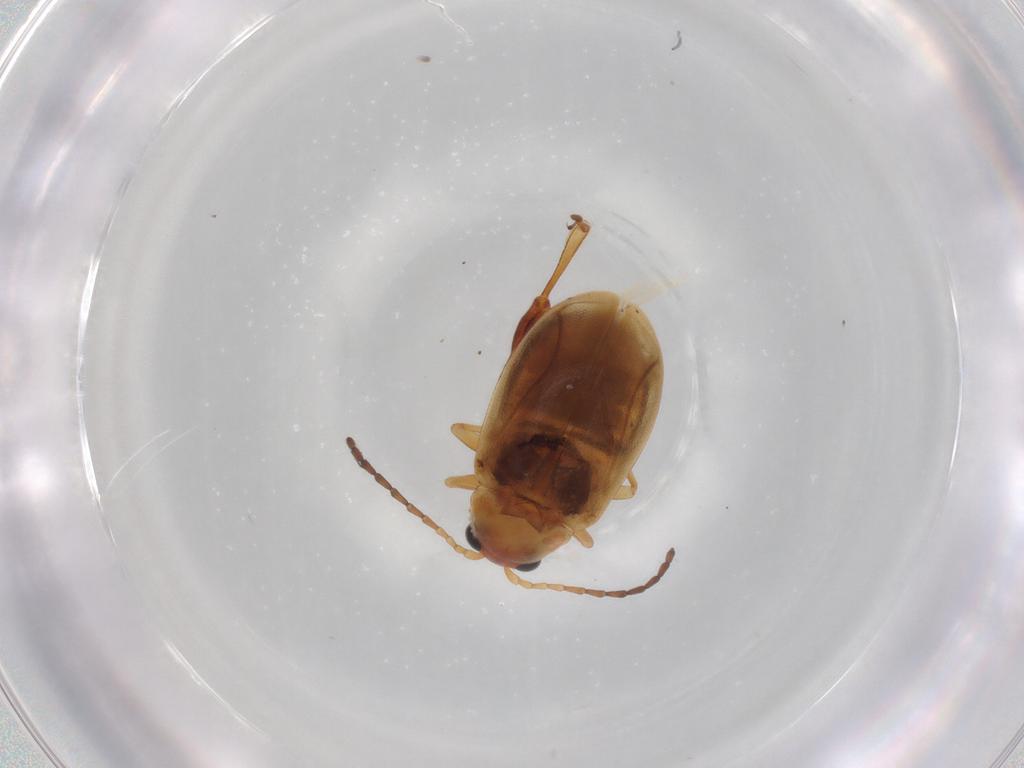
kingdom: Animalia
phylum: Arthropoda
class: Insecta
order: Coleoptera
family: Chrysomelidae
